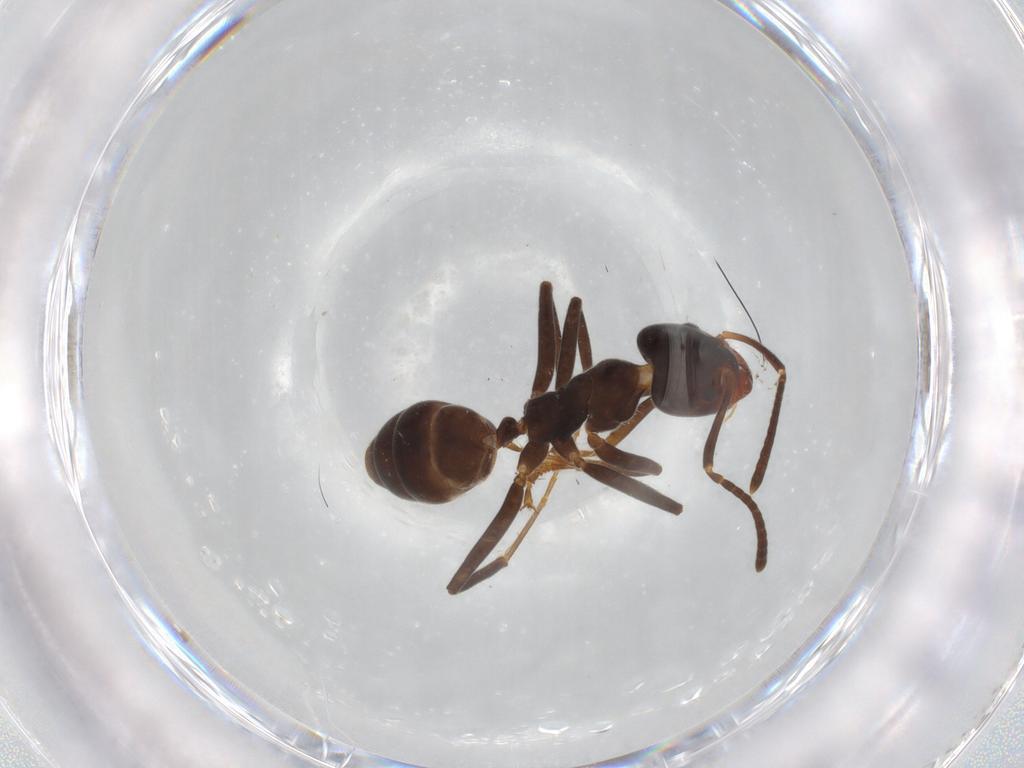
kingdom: Animalia
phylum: Arthropoda
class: Insecta
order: Hymenoptera
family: Formicidae
